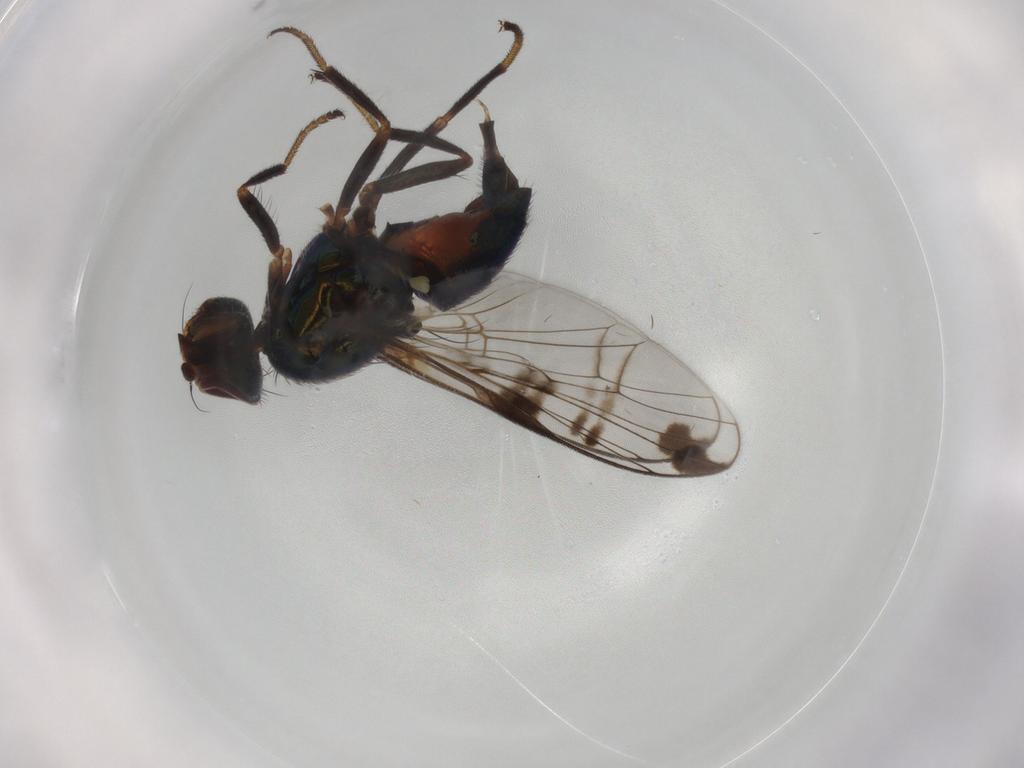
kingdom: Animalia
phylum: Arthropoda
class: Insecta
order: Diptera
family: Platystomatidae
